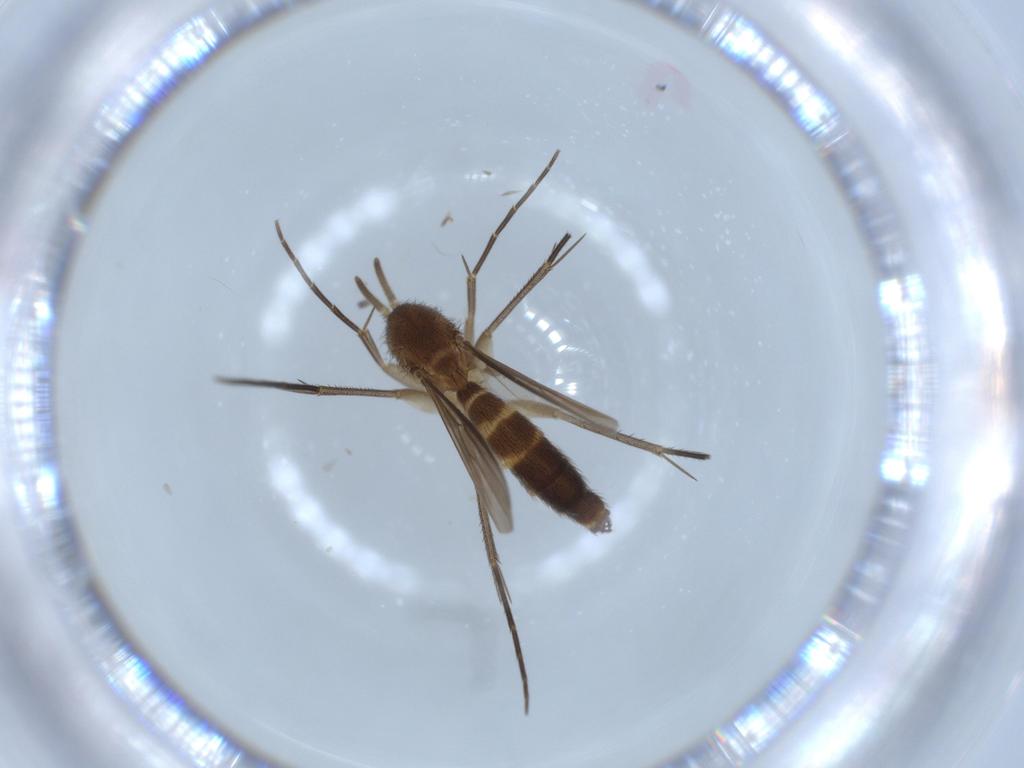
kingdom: Animalia
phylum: Arthropoda
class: Insecta
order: Diptera
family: Mycetophilidae
